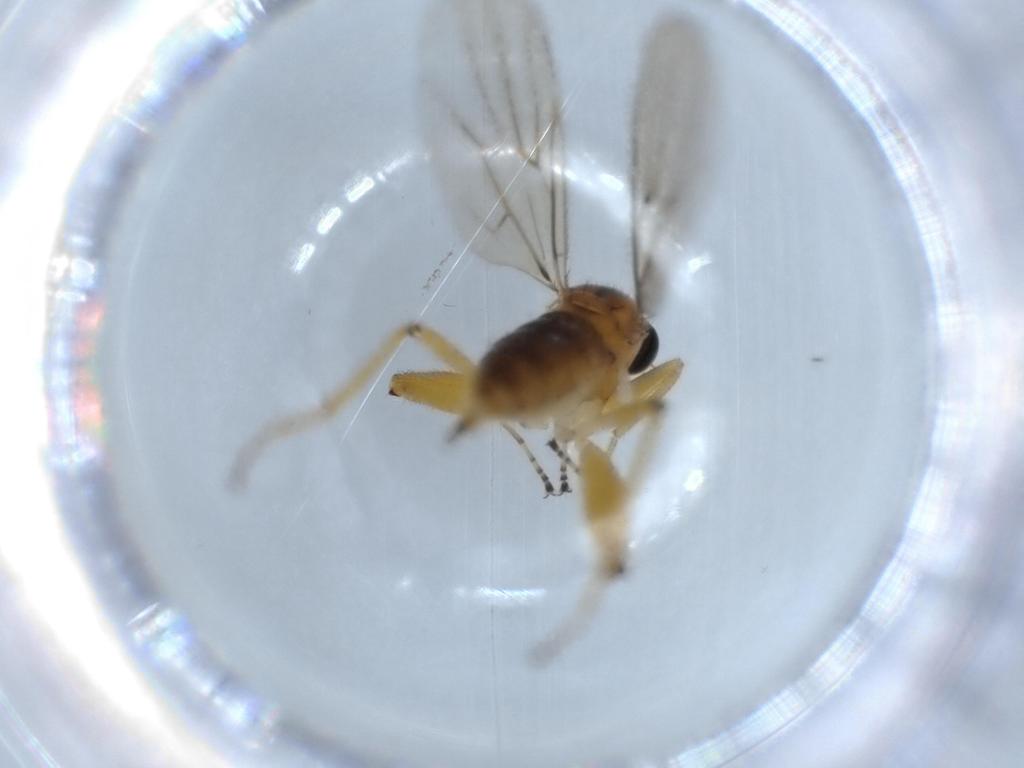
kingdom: Animalia
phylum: Arthropoda
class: Insecta
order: Diptera
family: Hybotidae
